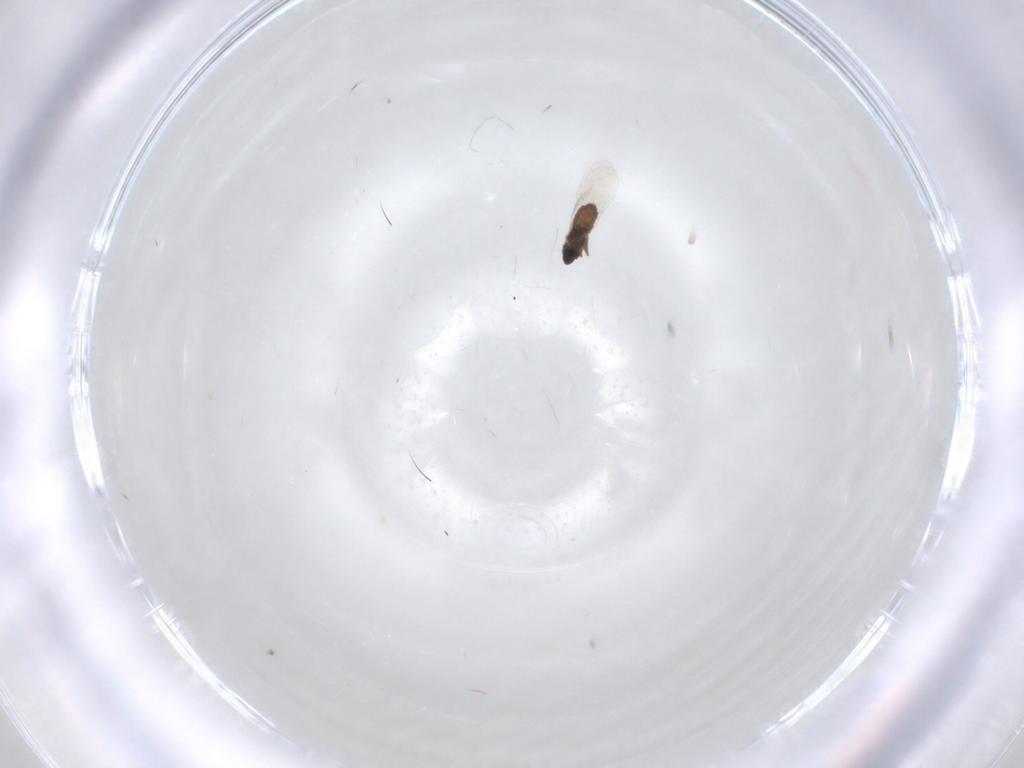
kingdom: Animalia
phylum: Arthropoda
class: Insecta
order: Diptera
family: Cecidomyiidae
